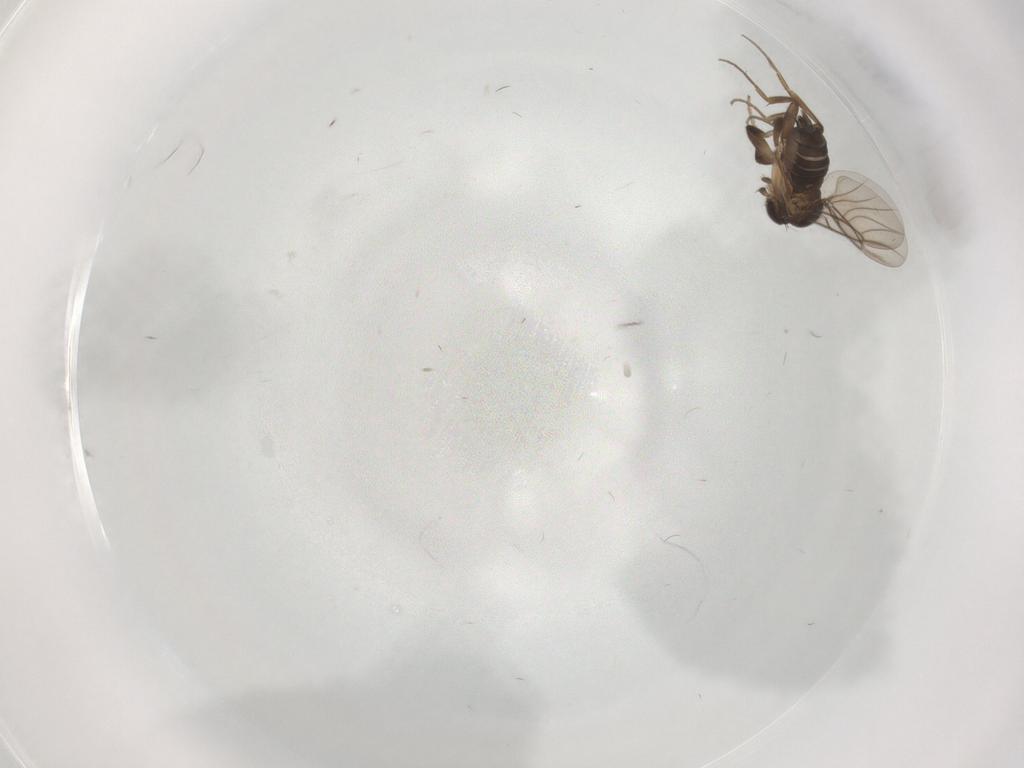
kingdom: Animalia
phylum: Arthropoda
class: Insecta
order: Diptera
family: Phoridae
